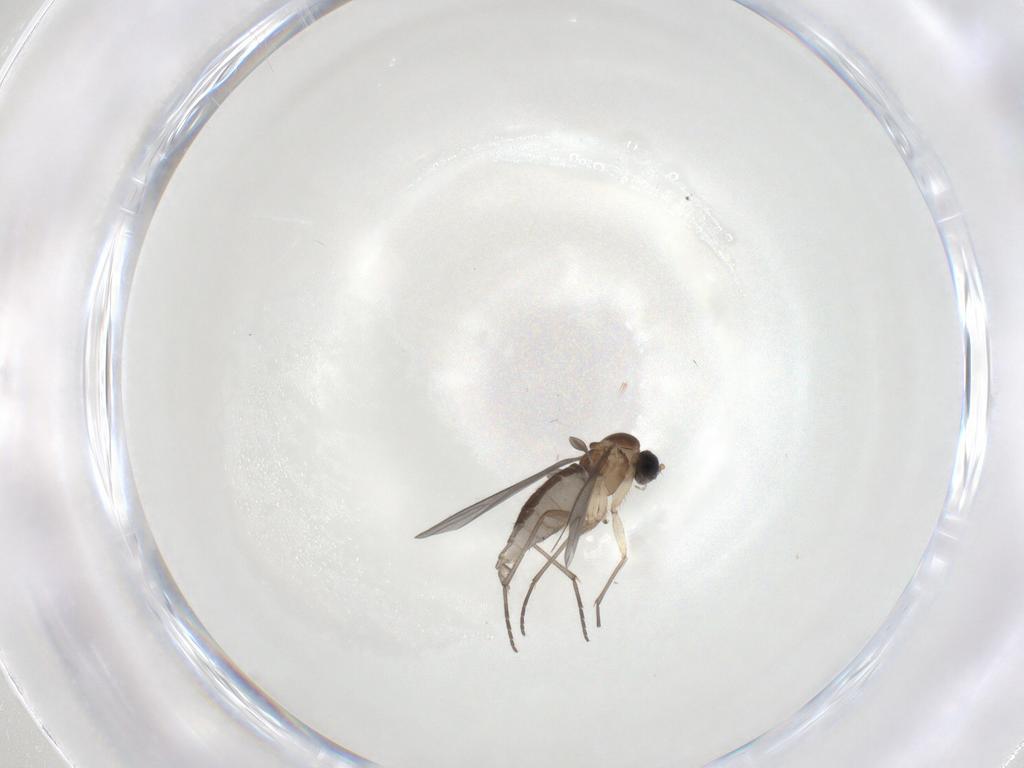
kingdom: Animalia
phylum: Arthropoda
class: Insecta
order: Diptera
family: Sciaridae
